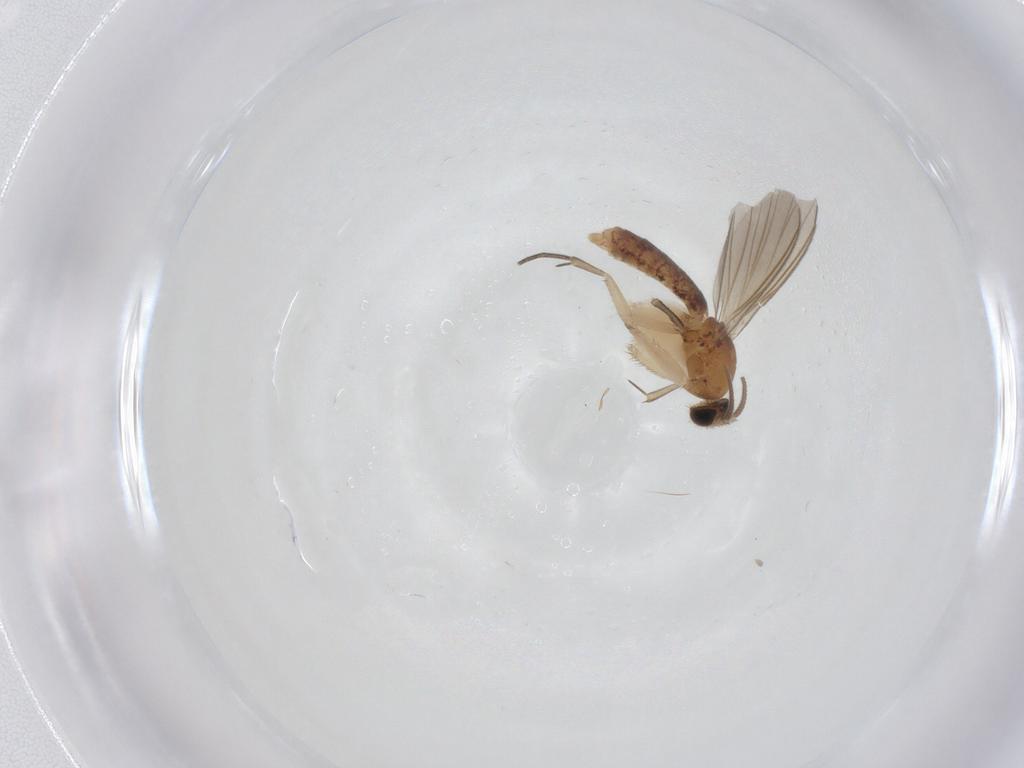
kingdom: Animalia
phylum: Arthropoda
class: Insecta
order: Diptera
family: Mycetophilidae
